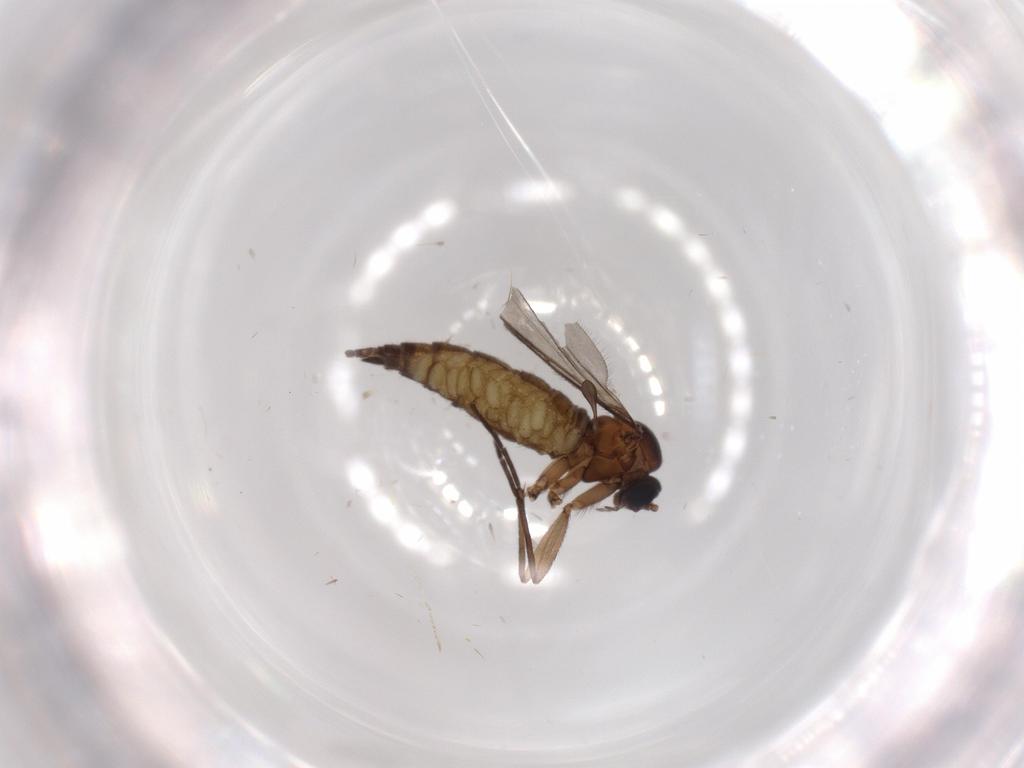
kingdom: Animalia
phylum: Arthropoda
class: Insecta
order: Diptera
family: Sciaridae
